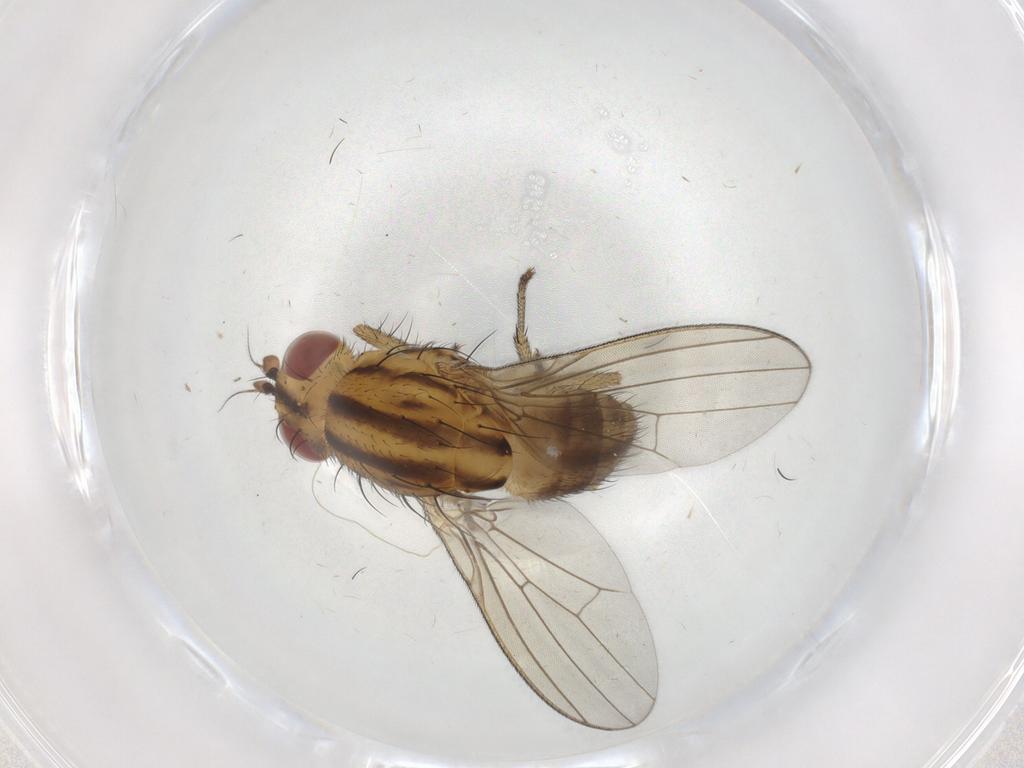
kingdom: Animalia
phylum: Arthropoda
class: Insecta
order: Diptera
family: Ceratopogonidae
